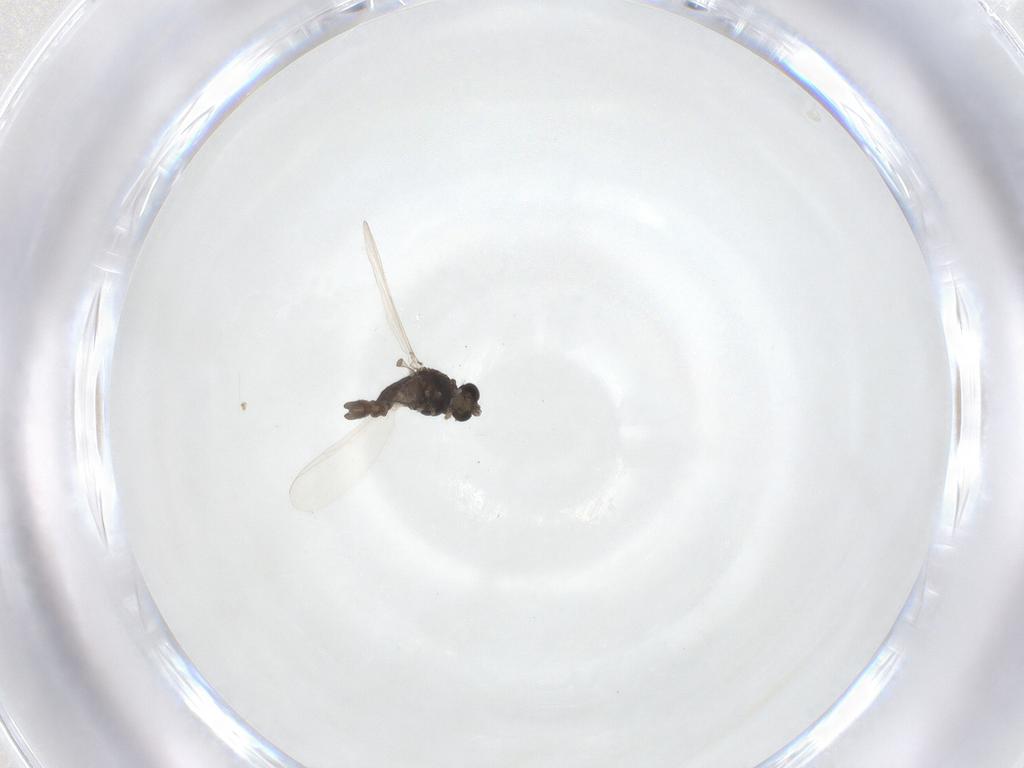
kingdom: Animalia
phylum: Arthropoda
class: Insecta
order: Diptera
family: Chironomidae
